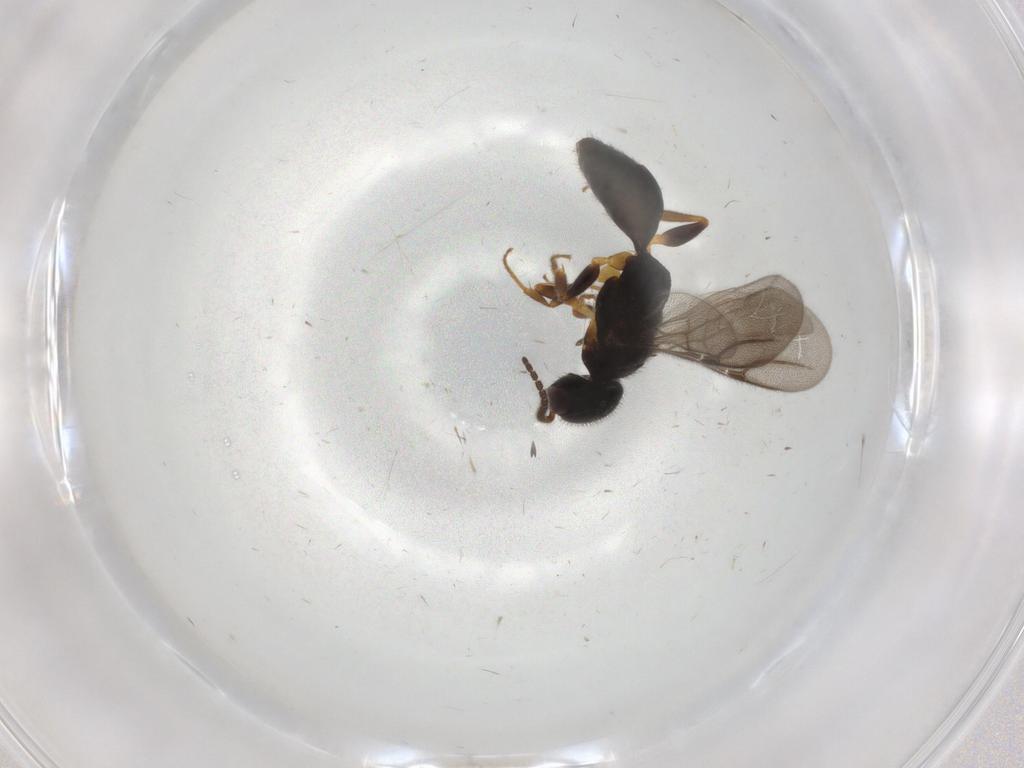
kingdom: Animalia
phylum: Arthropoda
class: Insecta
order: Hymenoptera
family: Bethylidae
